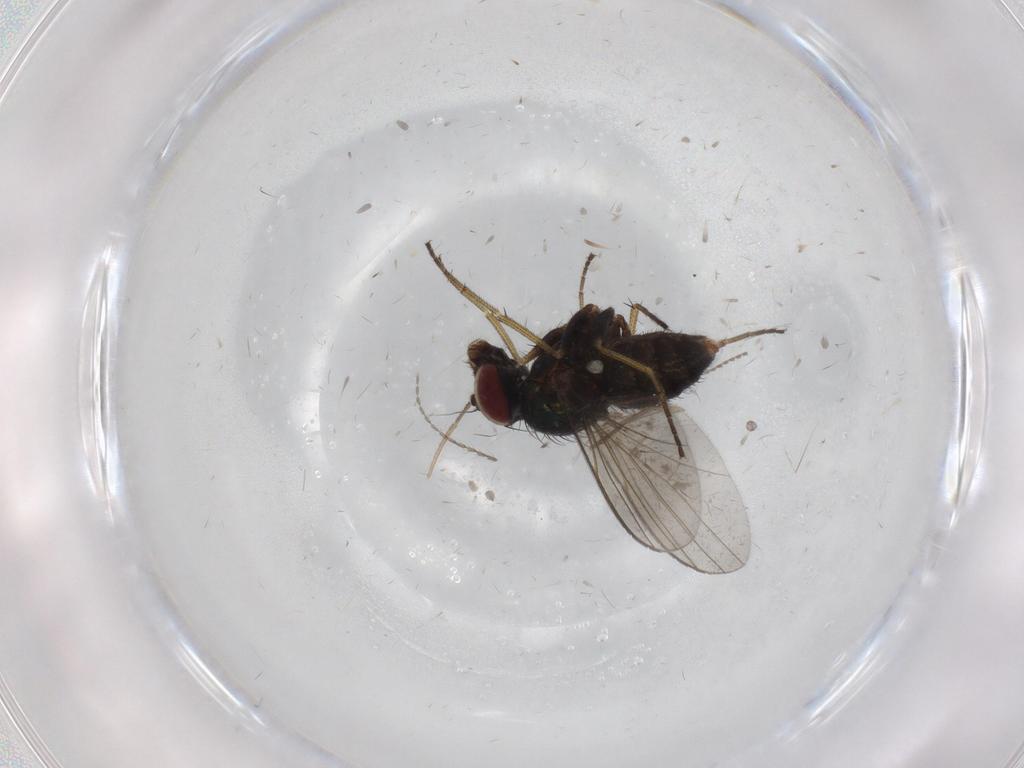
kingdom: Animalia
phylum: Arthropoda
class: Insecta
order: Diptera
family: Dolichopodidae
